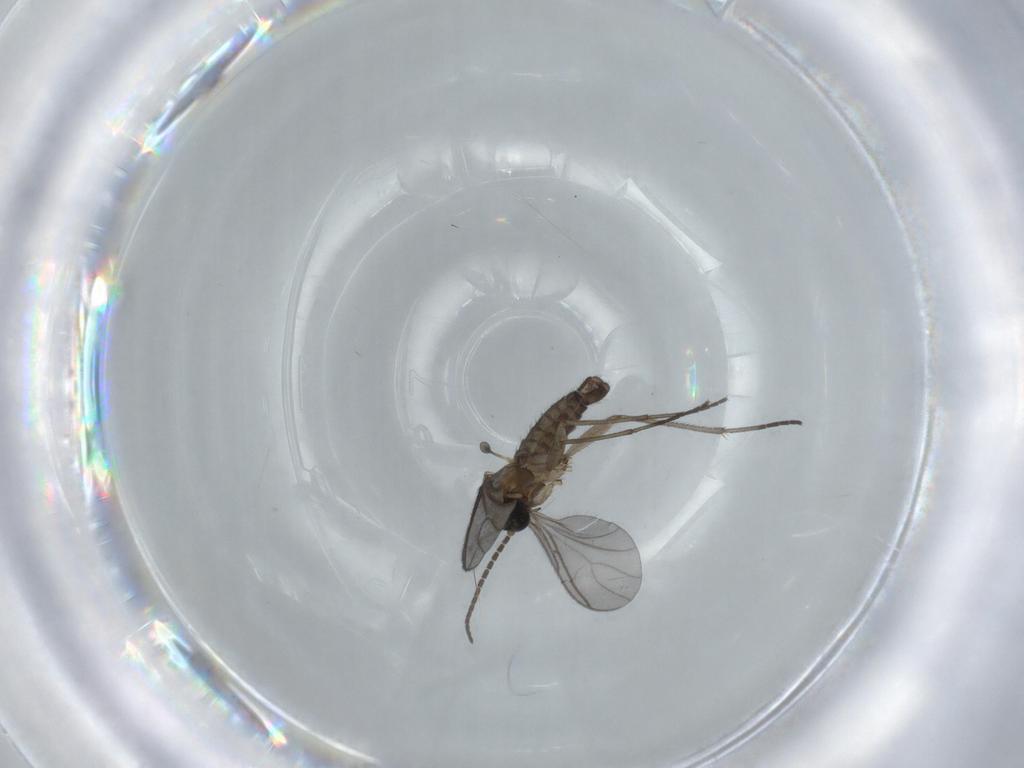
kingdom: Animalia
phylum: Arthropoda
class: Insecta
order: Diptera
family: Sciaridae
